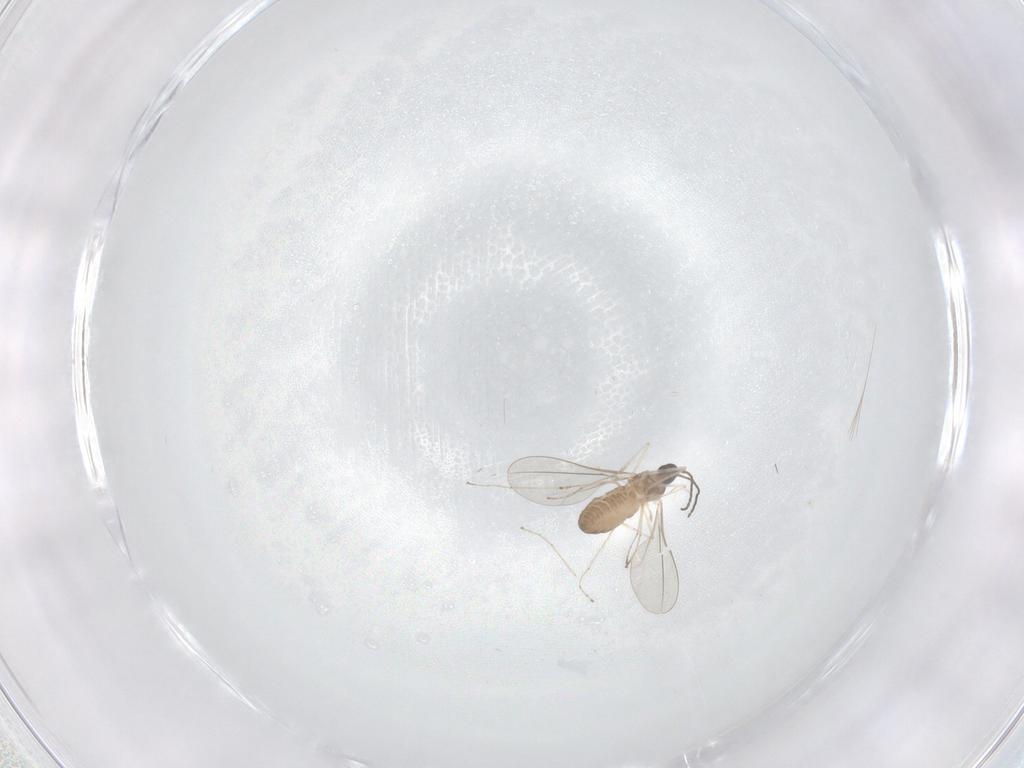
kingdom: Animalia
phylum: Arthropoda
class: Insecta
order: Diptera
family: Cecidomyiidae
